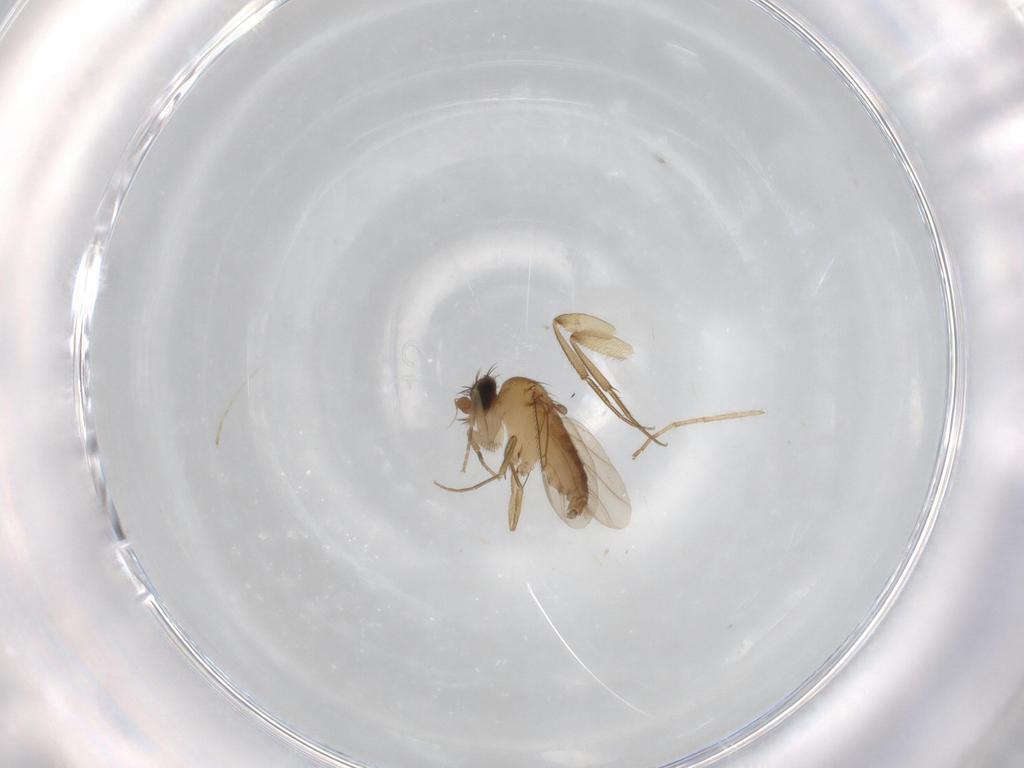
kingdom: Animalia
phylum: Arthropoda
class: Insecta
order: Diptera
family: Phoridae
